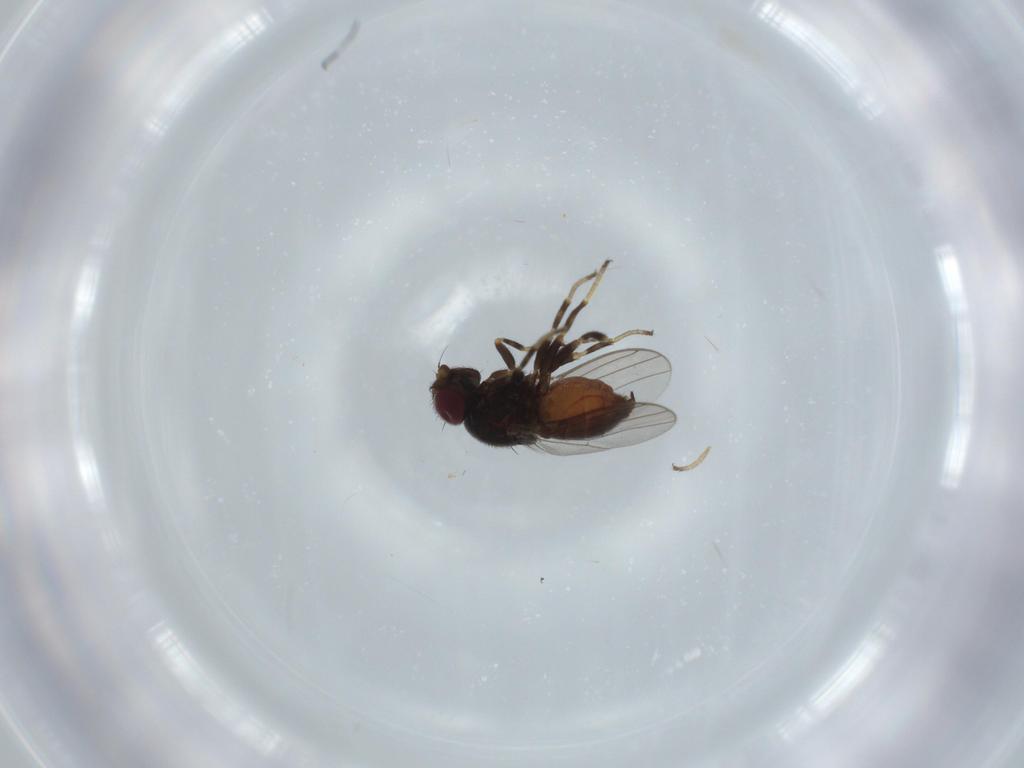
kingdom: Animalia
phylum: Arthropoda
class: Insecta
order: Diptera
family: Chloropidae
